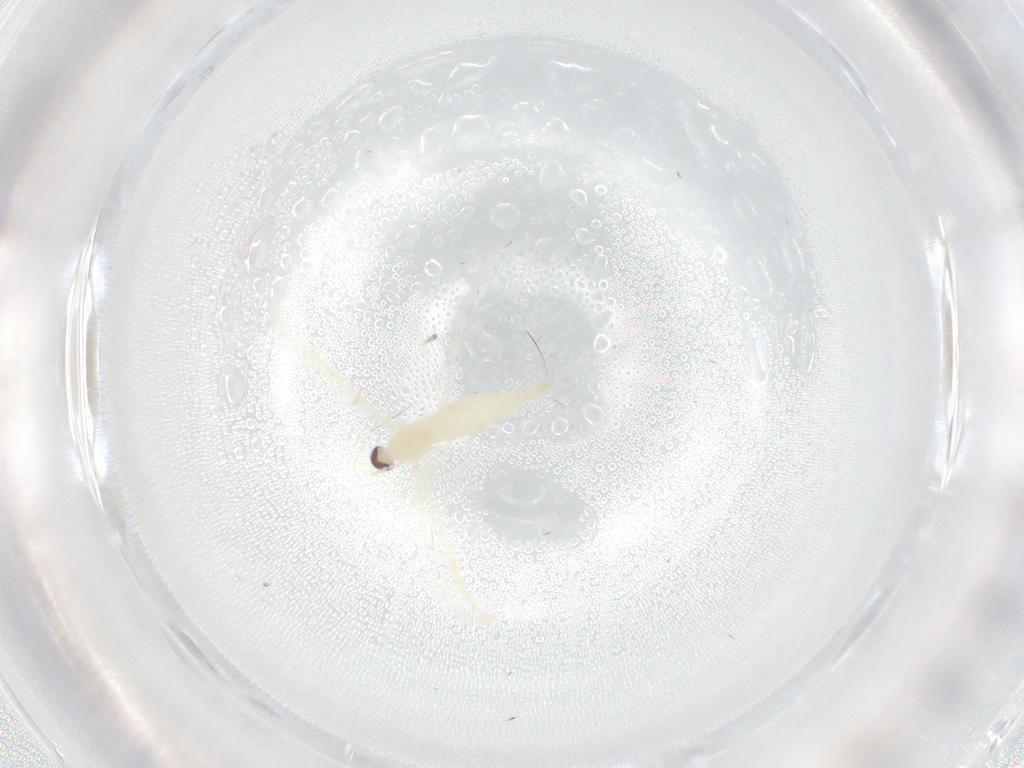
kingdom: Animalia
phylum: Arthropoda
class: Insecta
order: Diptera
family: Cecidomyiidae
